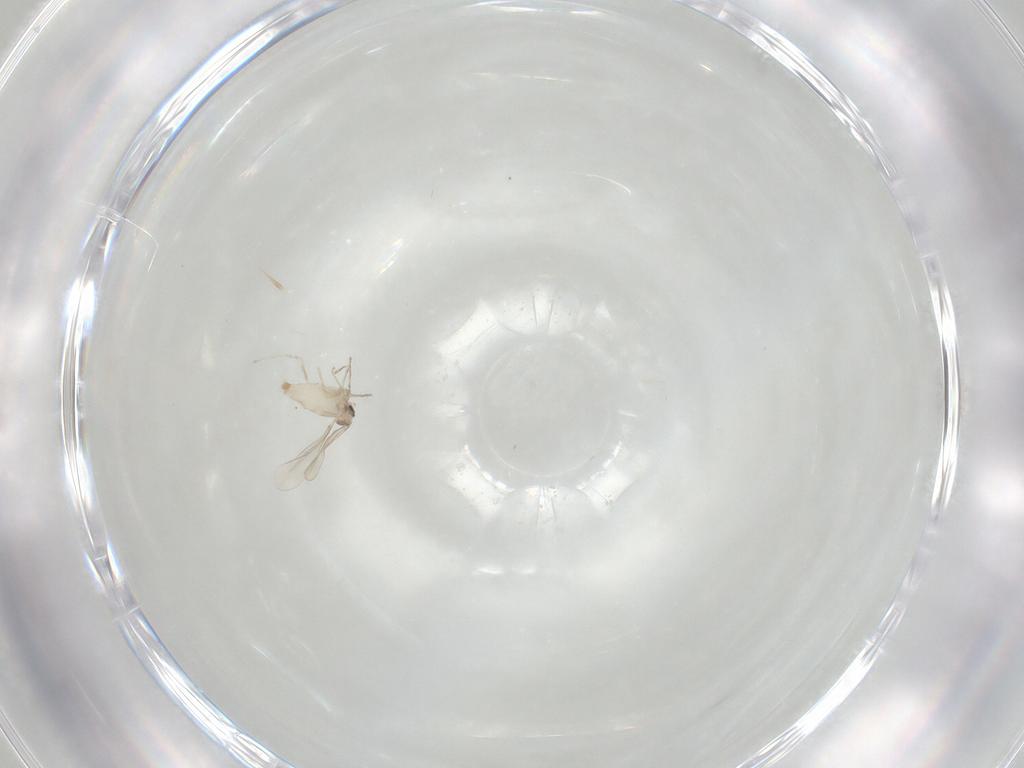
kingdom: Animalia
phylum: Arthropoda
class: Insecta
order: Diptera
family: Cecidomyiidae
